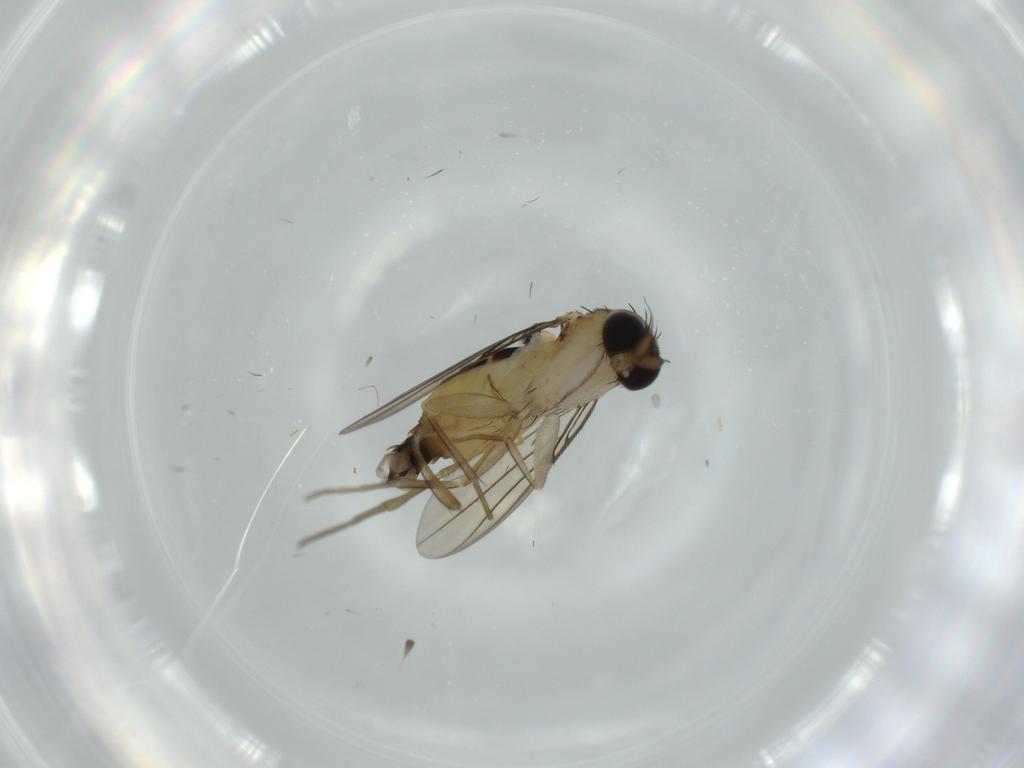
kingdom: Animalia
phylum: Arthropoda
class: Insecta
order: Diptera
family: Phoridae
